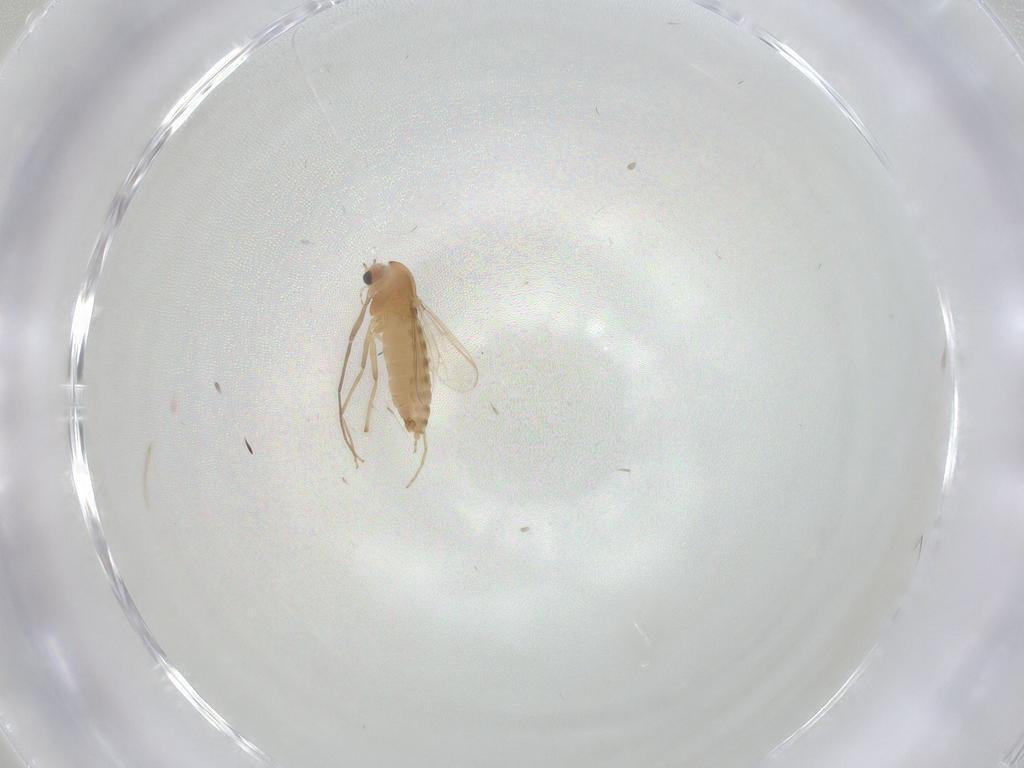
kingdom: Animalia
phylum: Arthropoda
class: Insecta
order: Diptera
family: Chironomidae
